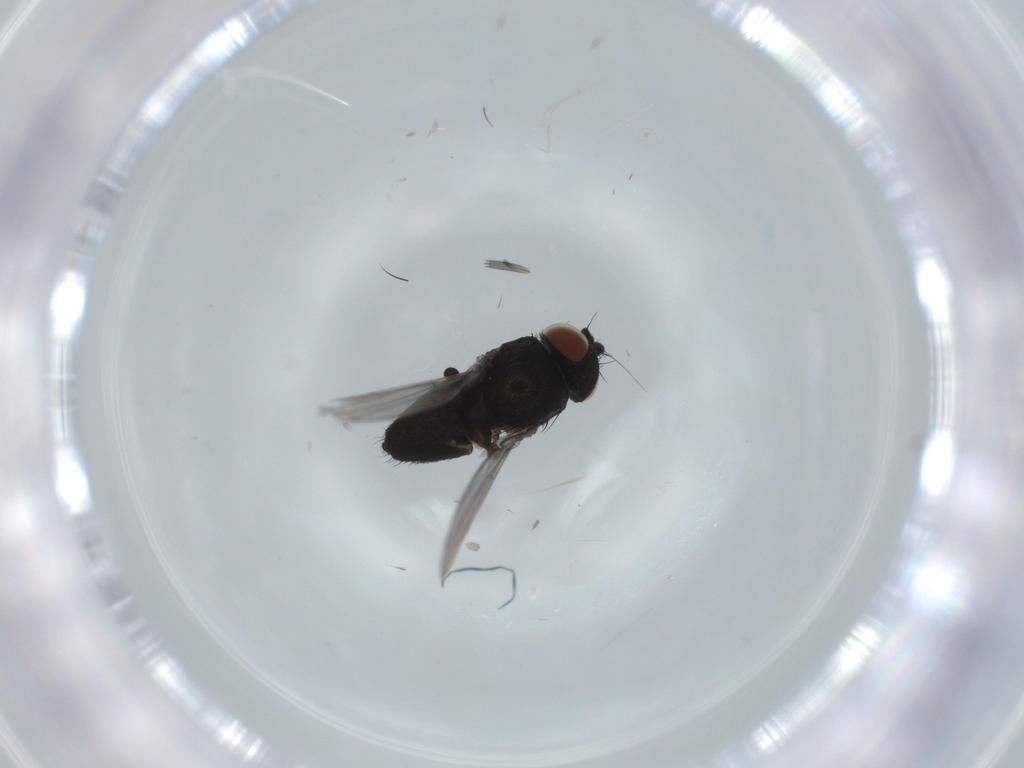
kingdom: Animalia
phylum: Arthropoda
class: Insecta
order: Diptera
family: Milichiidae
